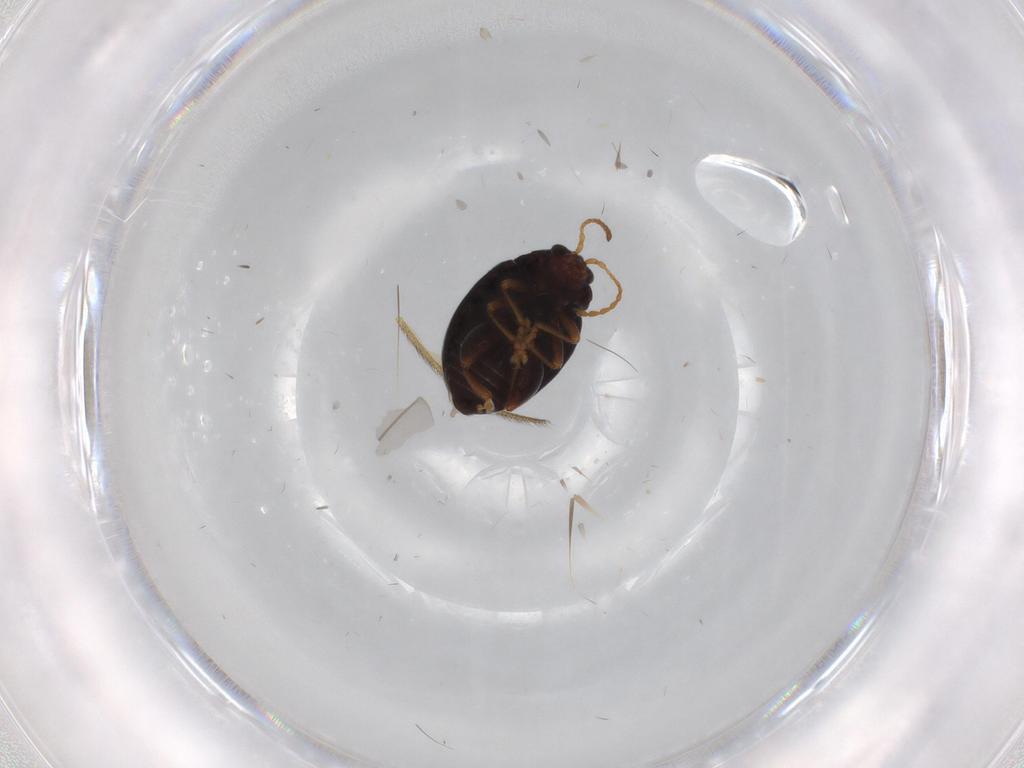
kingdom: Animalia
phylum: Arthropoda
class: Insecta
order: Coleoptera
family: Chrysomelidae
